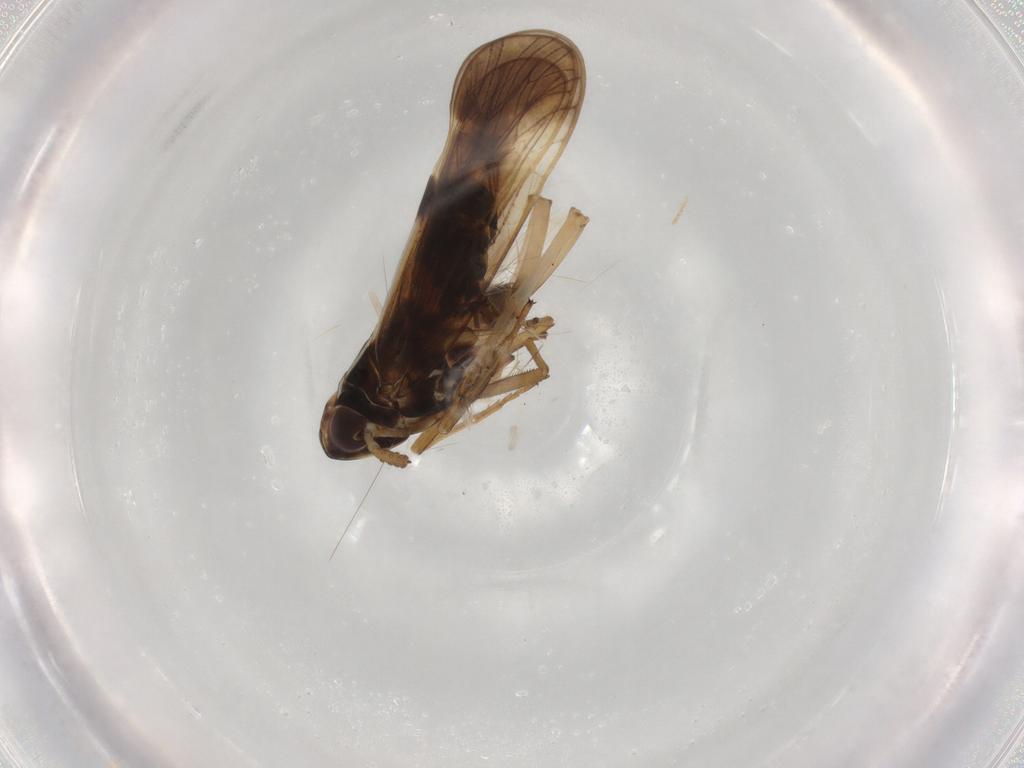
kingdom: Animalia
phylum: Arthropoda
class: Insecta
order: Hemiptera
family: Delphacidae
